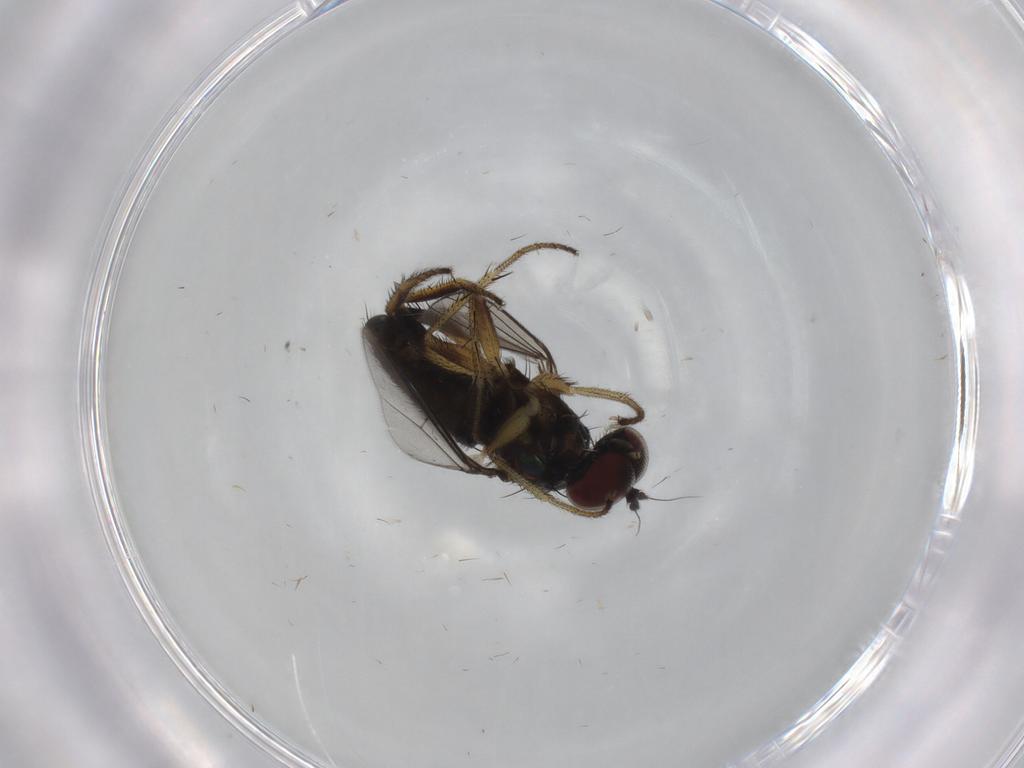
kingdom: Animalia
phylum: Arthropoda
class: Insecta
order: Diptera
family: Dolichopodidae
